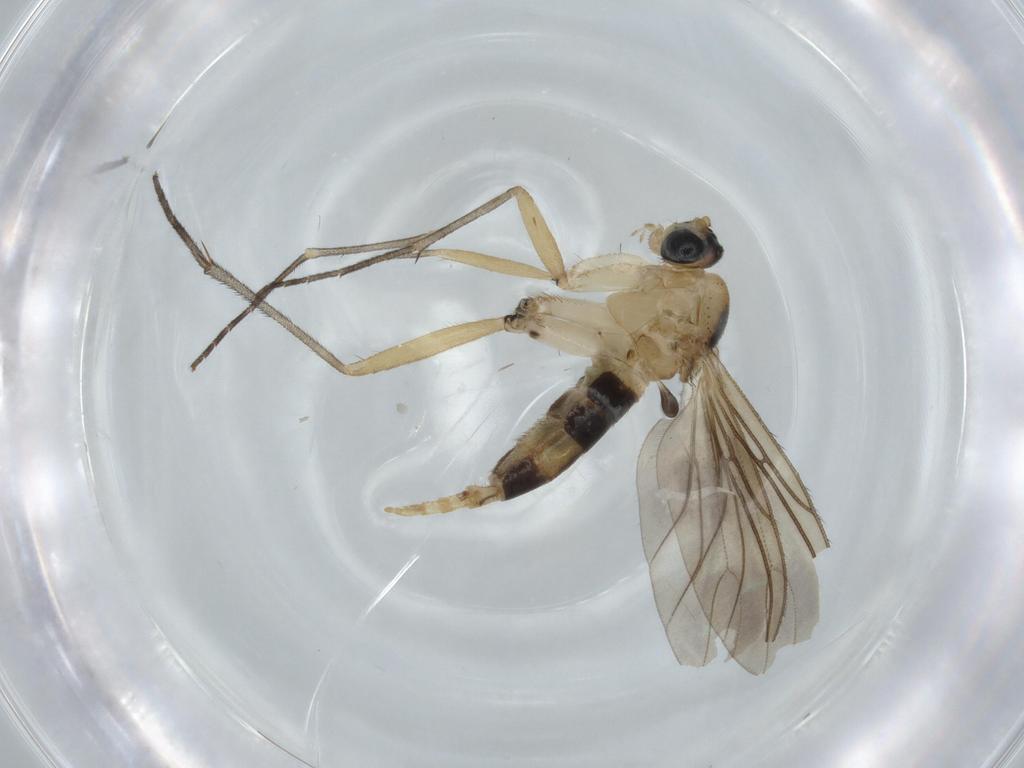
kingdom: Animalia
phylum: Arthropoda
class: Insecta
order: Diptera
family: Sciaridae
